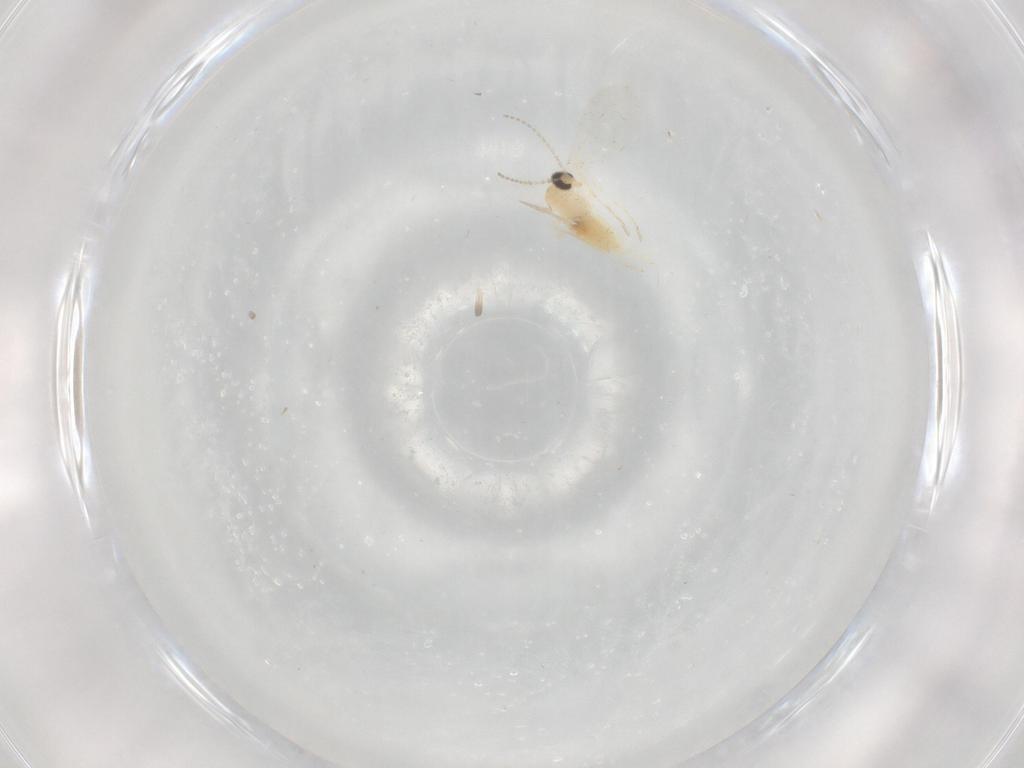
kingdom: Animalia
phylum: Arthropoda
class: Insecta
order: Diptera
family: Cecidomyiidae
